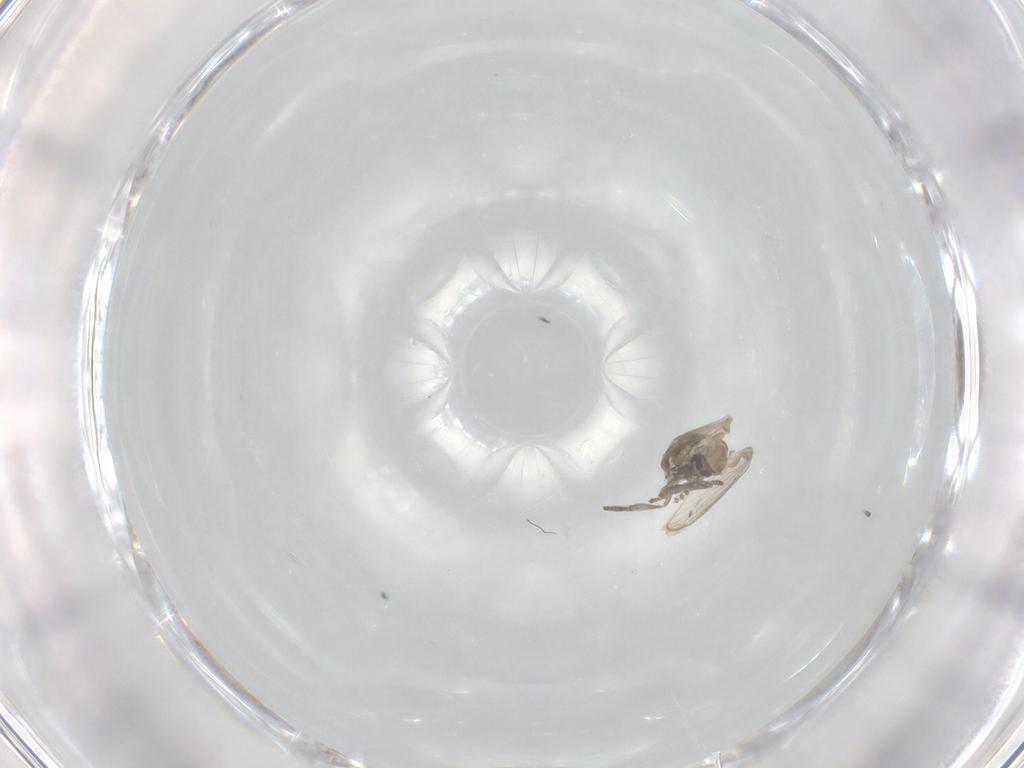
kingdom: Animalia
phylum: Arthropoda
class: Insecta
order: Diptera
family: Psychodidae
